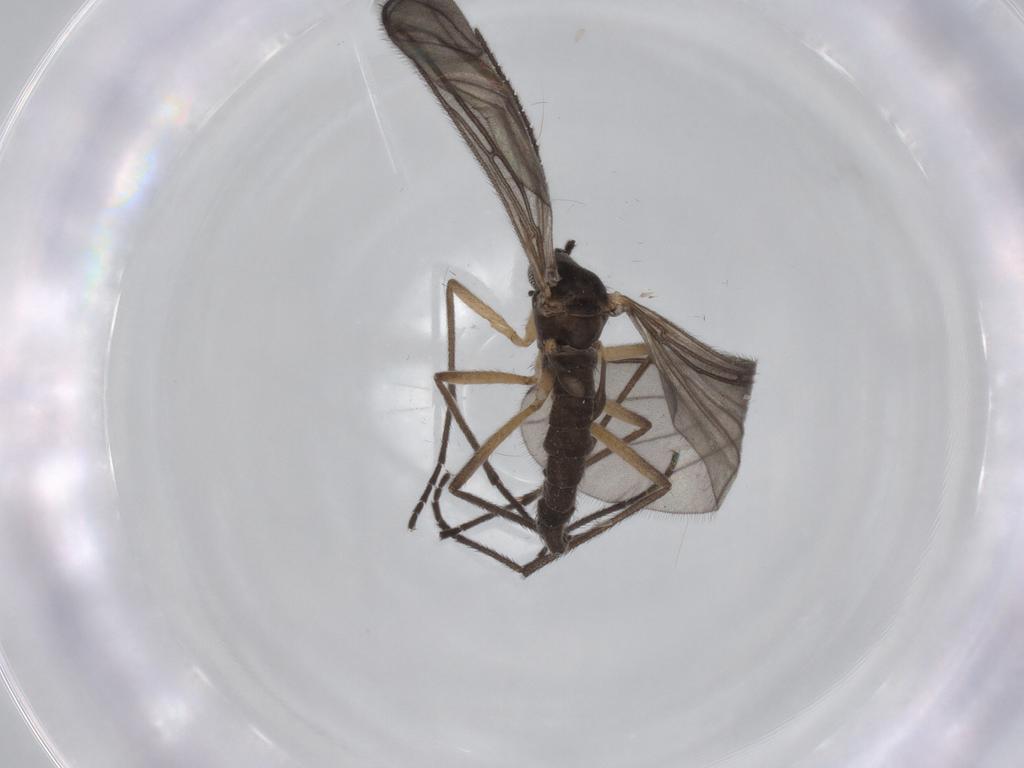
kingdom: Animalia
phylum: Arthropoda
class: Insecta
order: Diptera
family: Sciaridae
